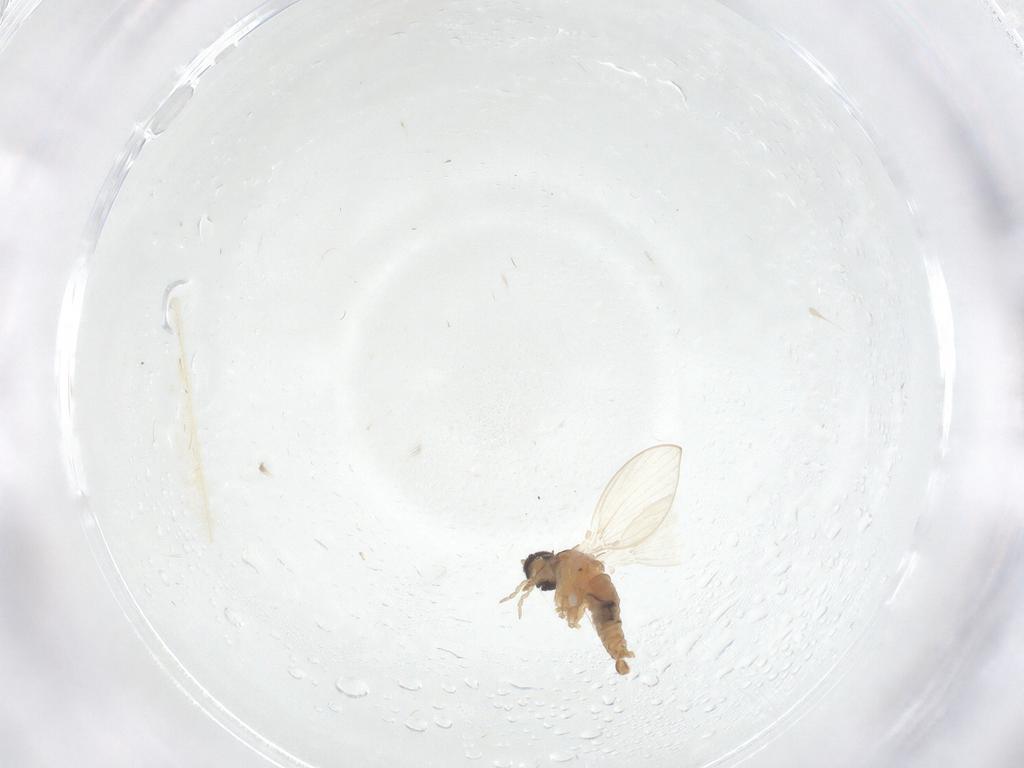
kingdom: Animalia
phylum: Arthropoda
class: Insecta
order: Diptera
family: Psychodidae
